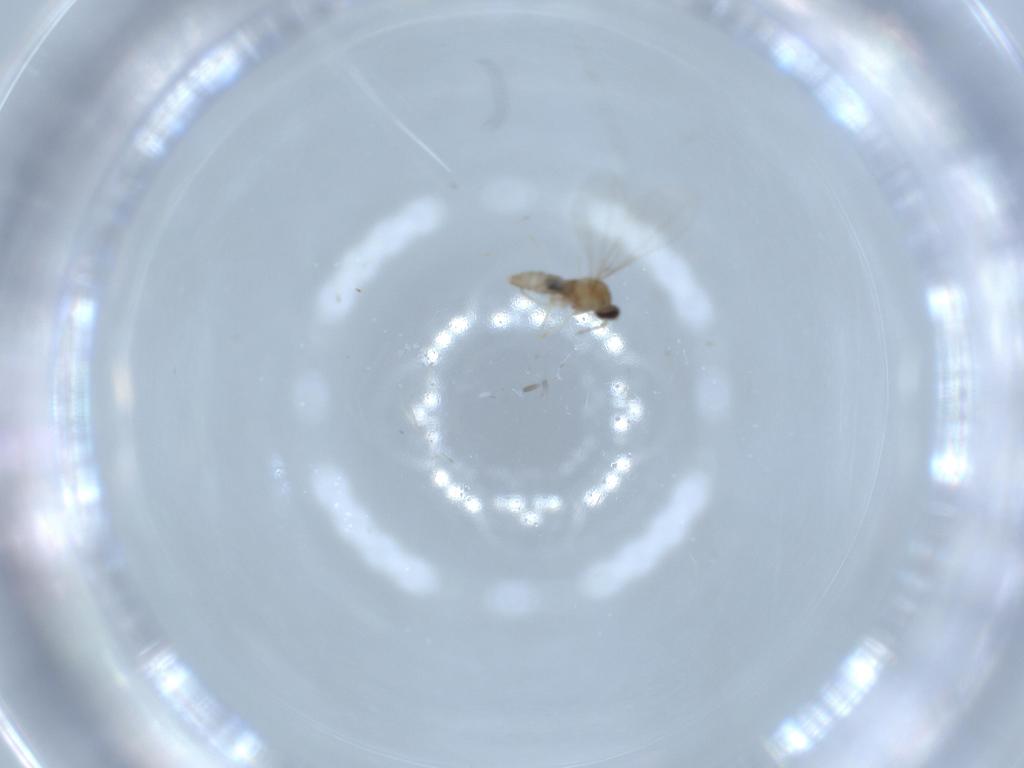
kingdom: Animalia
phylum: Arthropoda
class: Insecta
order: Diptera
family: Cecidomyiidae
